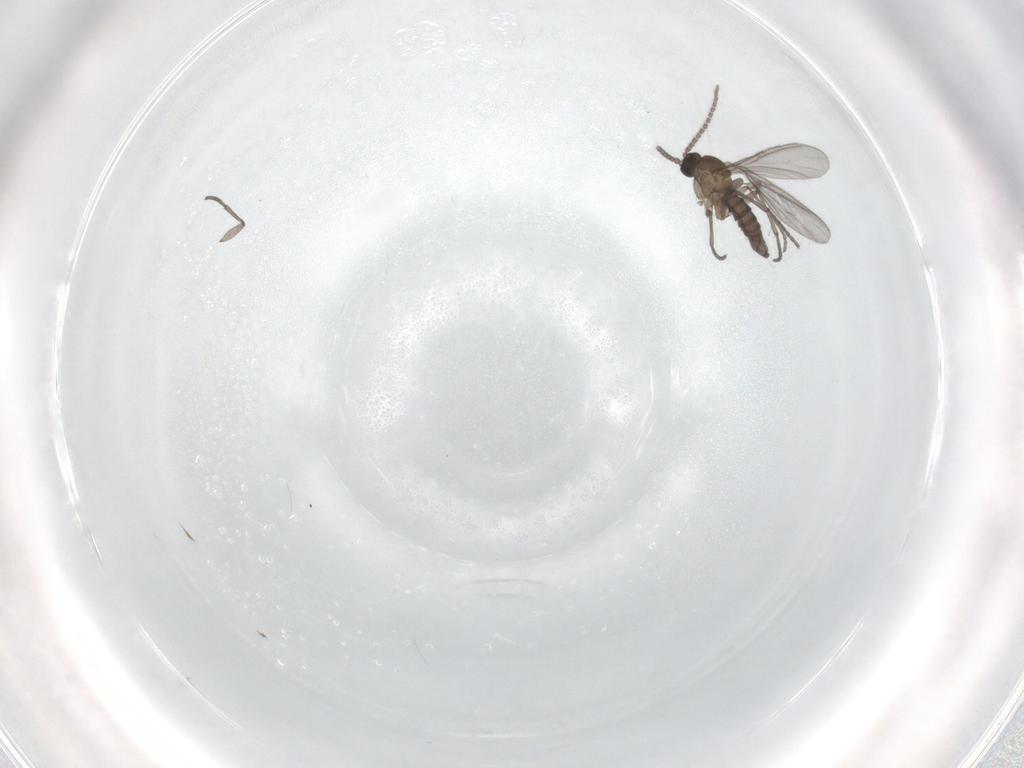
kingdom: Animalia
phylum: Arthropoda
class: Insecta
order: Diptera
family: Sciaridae
